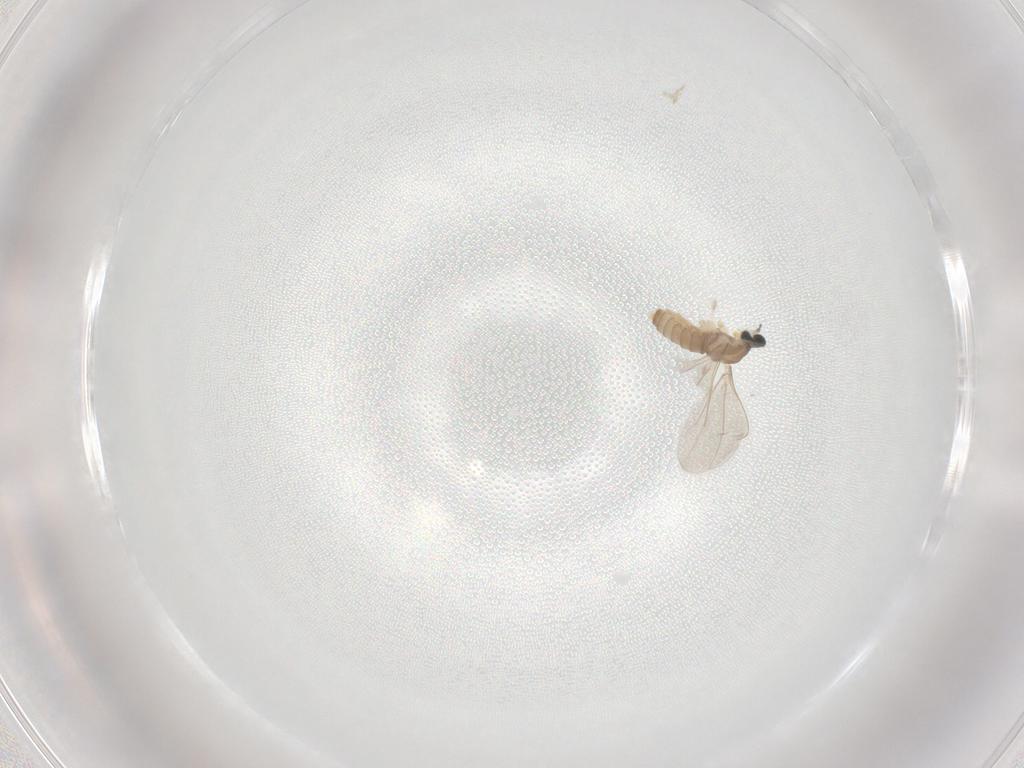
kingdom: Animalia
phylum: Arthropoda
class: Insecta
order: Diptera
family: Cecidomyiidae
